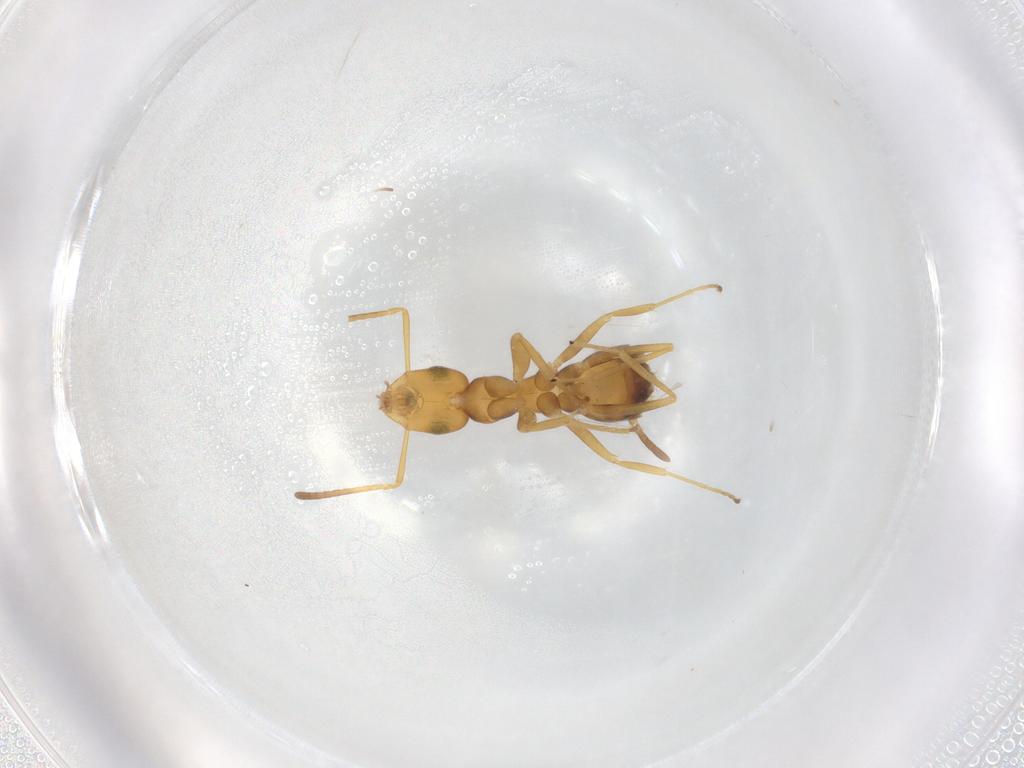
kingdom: Animalia
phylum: Arthropoda
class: Insecta
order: Hymenoptera
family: Formicidae
